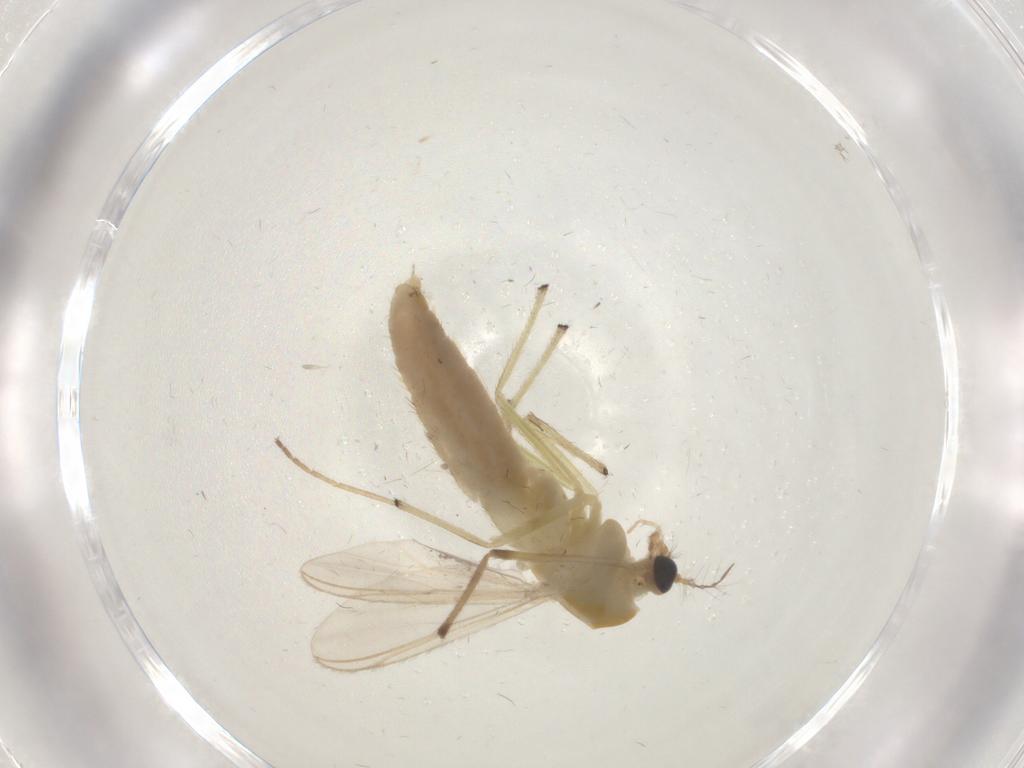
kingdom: Animalia
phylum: Arthropoda
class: Insecta
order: Diptera
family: Chironomidae
